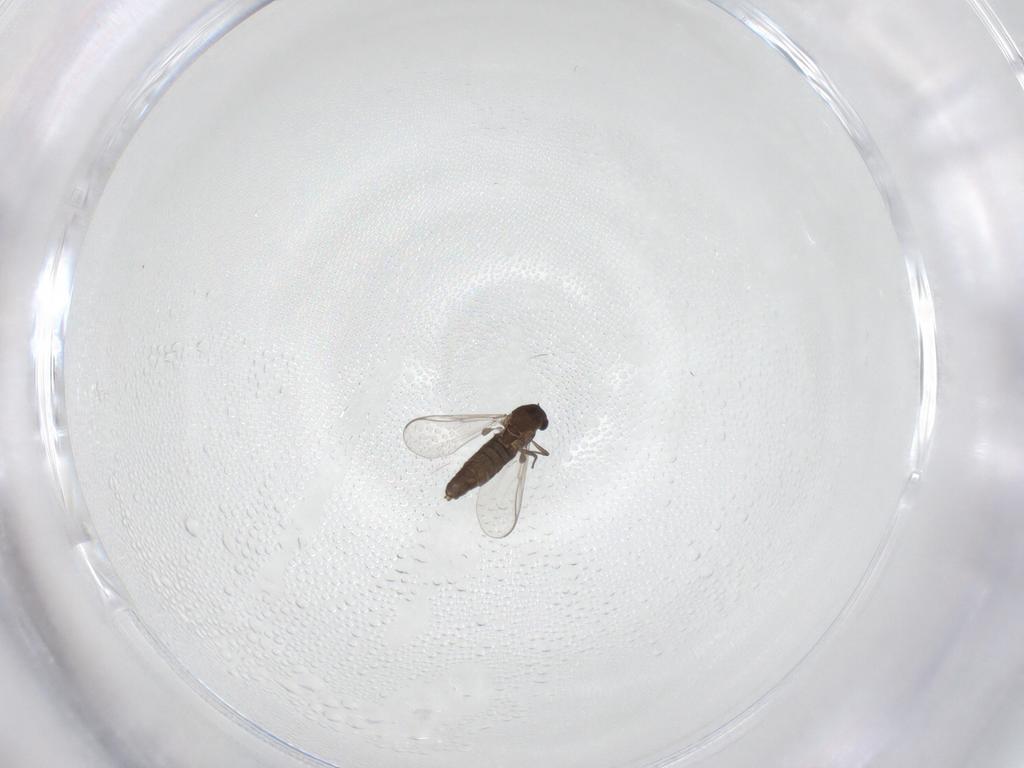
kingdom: Animalia
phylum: Arthropoda
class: Insecta
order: Diptera
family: Chironomidae
